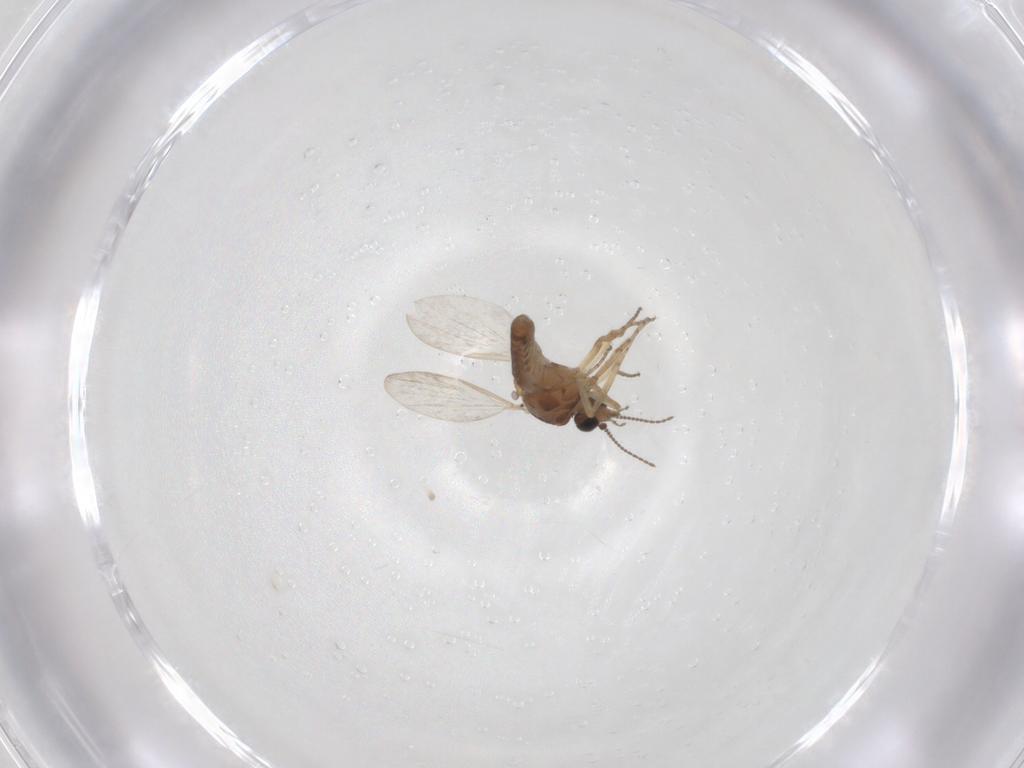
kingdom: Animalia
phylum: Arthropoda
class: Insecta
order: Diptera
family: Ceratopogonidae
